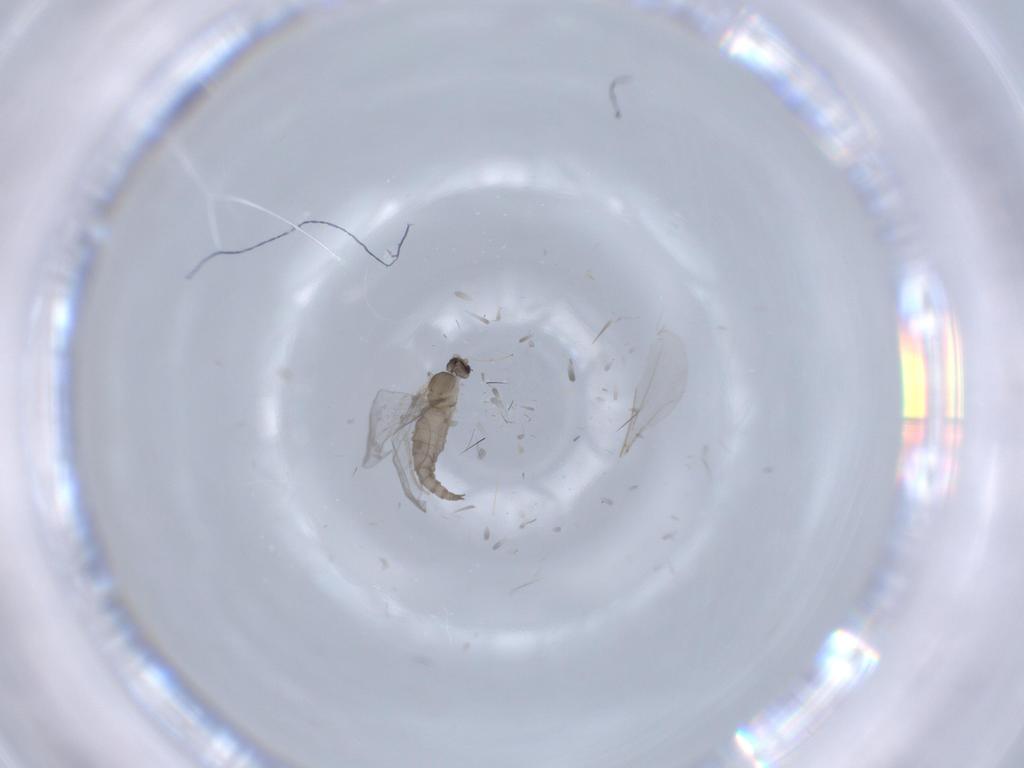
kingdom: Animalia
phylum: Arthropoda
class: Insecta
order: Diptera
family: Cecidomyiidae
